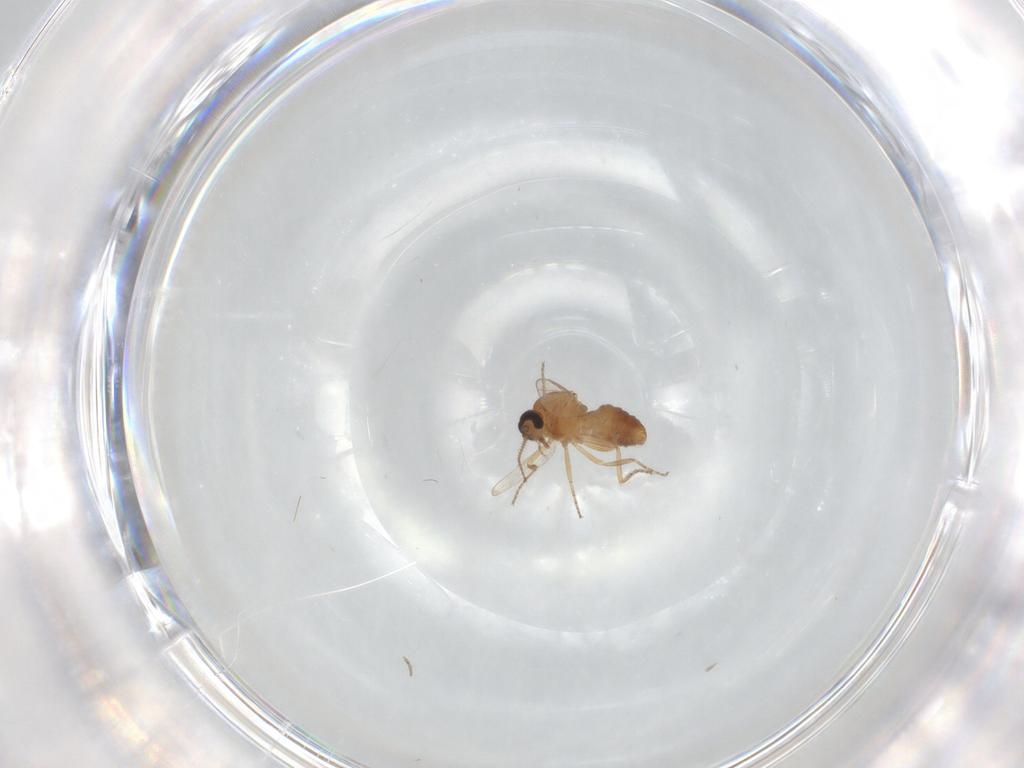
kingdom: Animalia
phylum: Arthropoda
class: Insecta
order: Diptera
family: Ceratopogonidae
